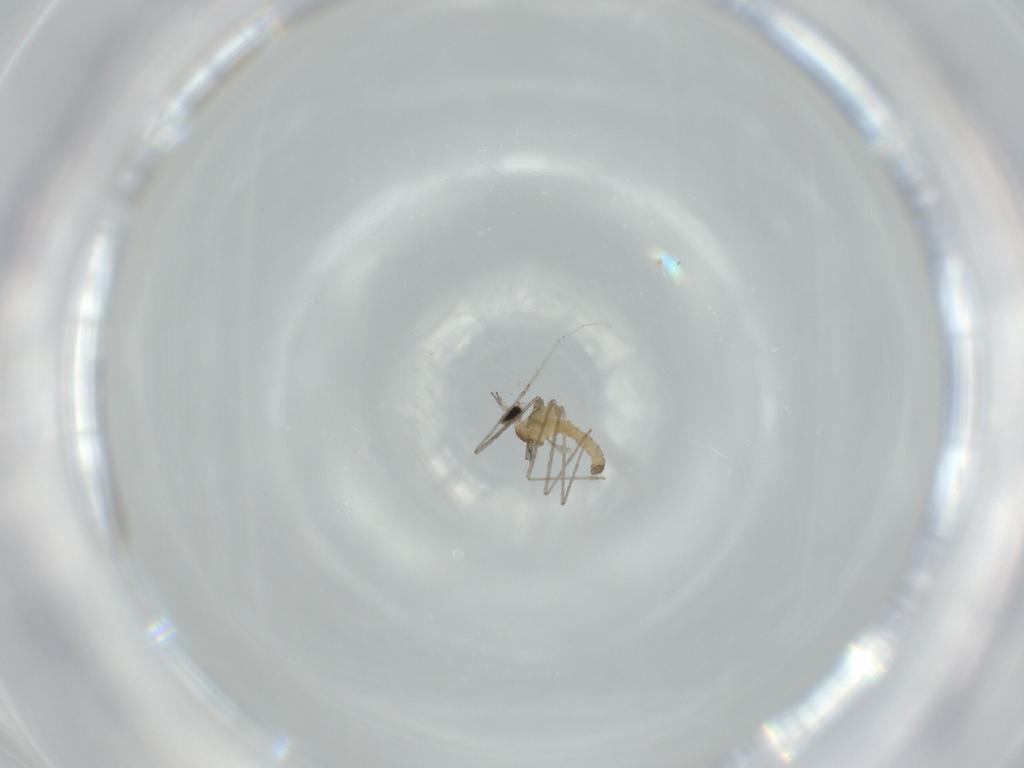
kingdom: Animalia
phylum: Arthropoda
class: Insecta
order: Diptera
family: Cecidomyiidae
